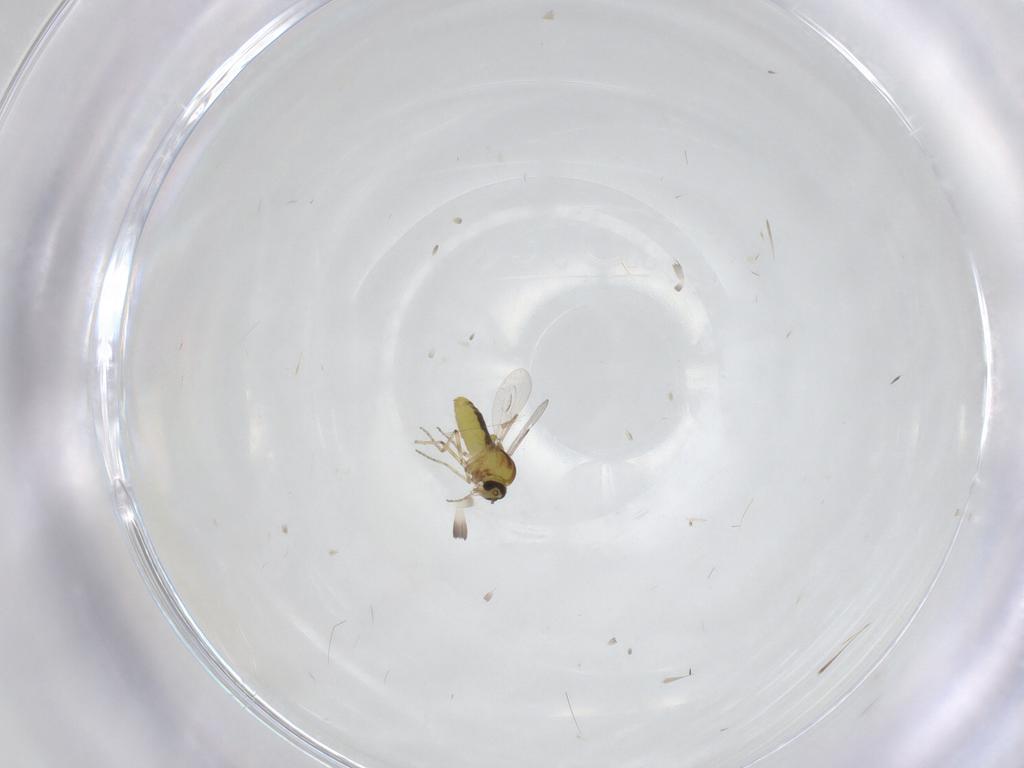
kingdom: Animalia
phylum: Arthropoda
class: Insecta
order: Diptera
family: Ceratopogonidae
